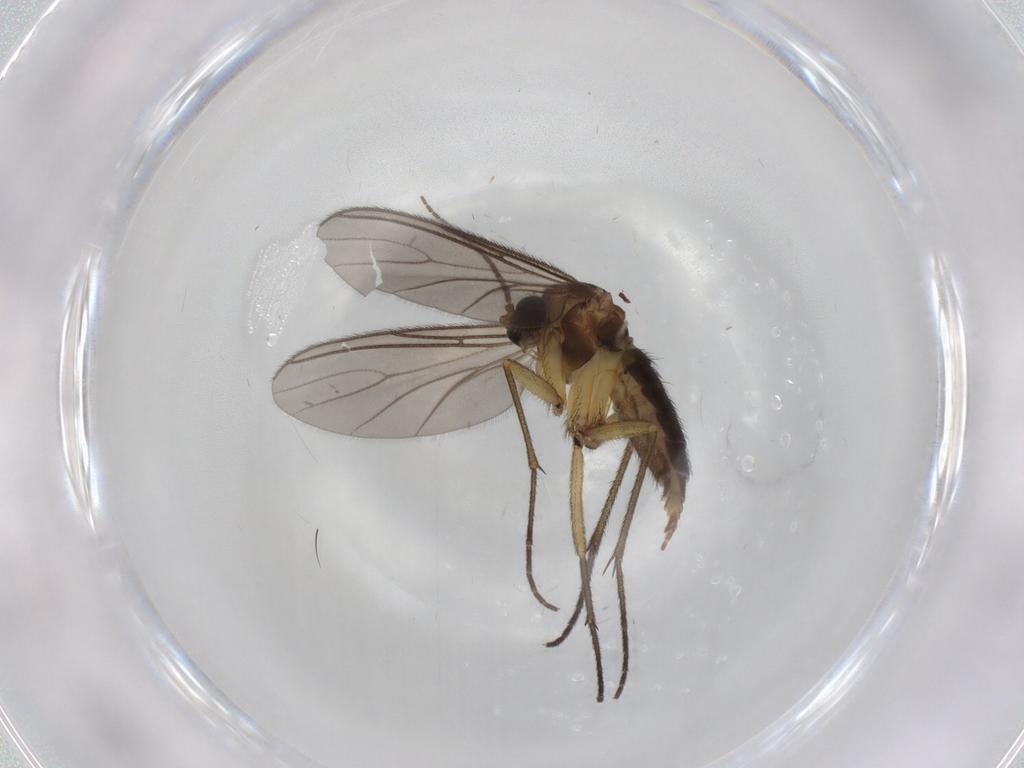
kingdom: Animalia
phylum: Arthropoda
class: Insecta
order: Diptera
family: Sciaridae
